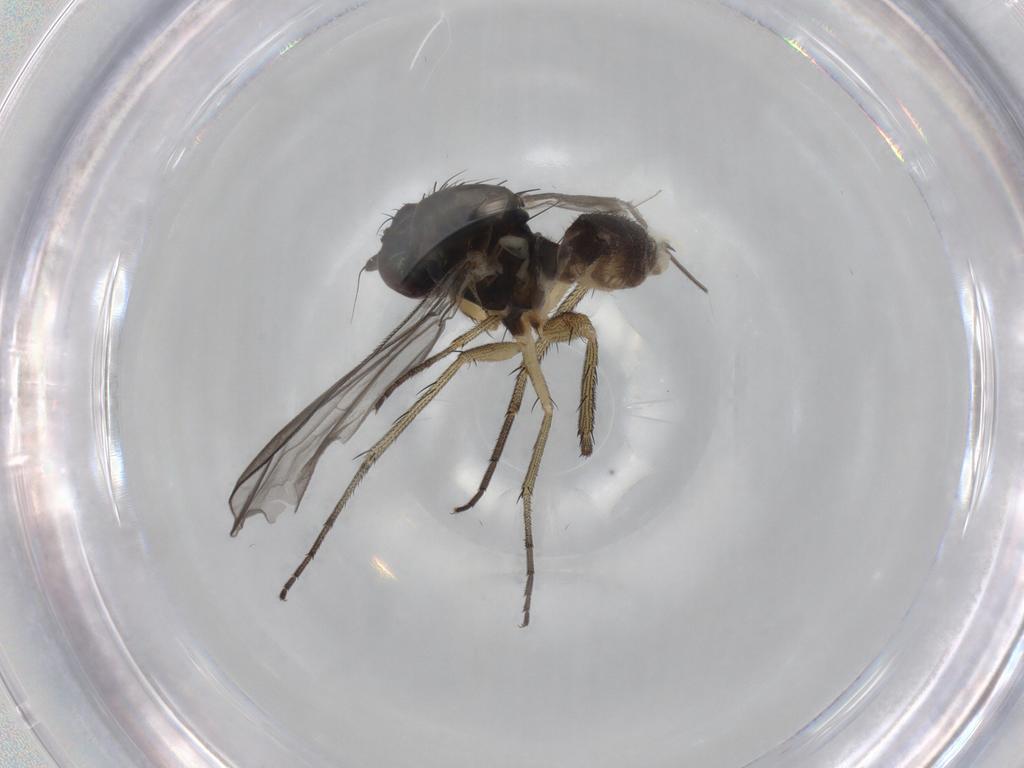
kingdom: Animalia
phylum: Arthropoda
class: Insecta
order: Diptera
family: Dolichopodidae
